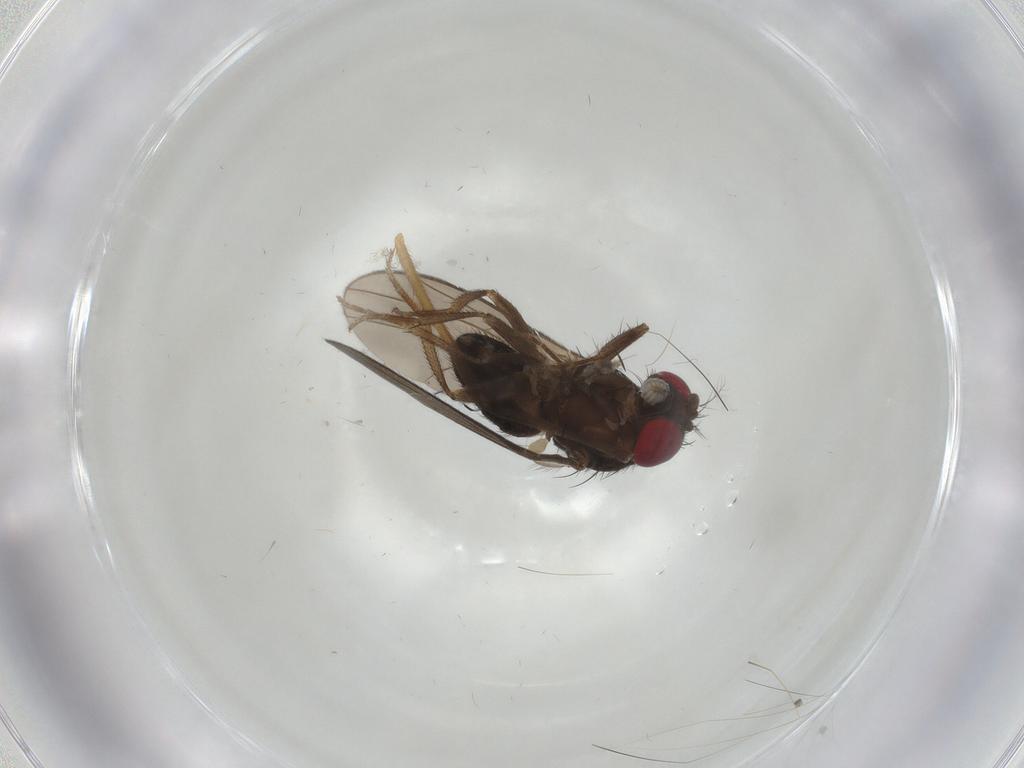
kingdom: Animalia
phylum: Arthropoda
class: Insecta
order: Diptera
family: Drosophilidae
